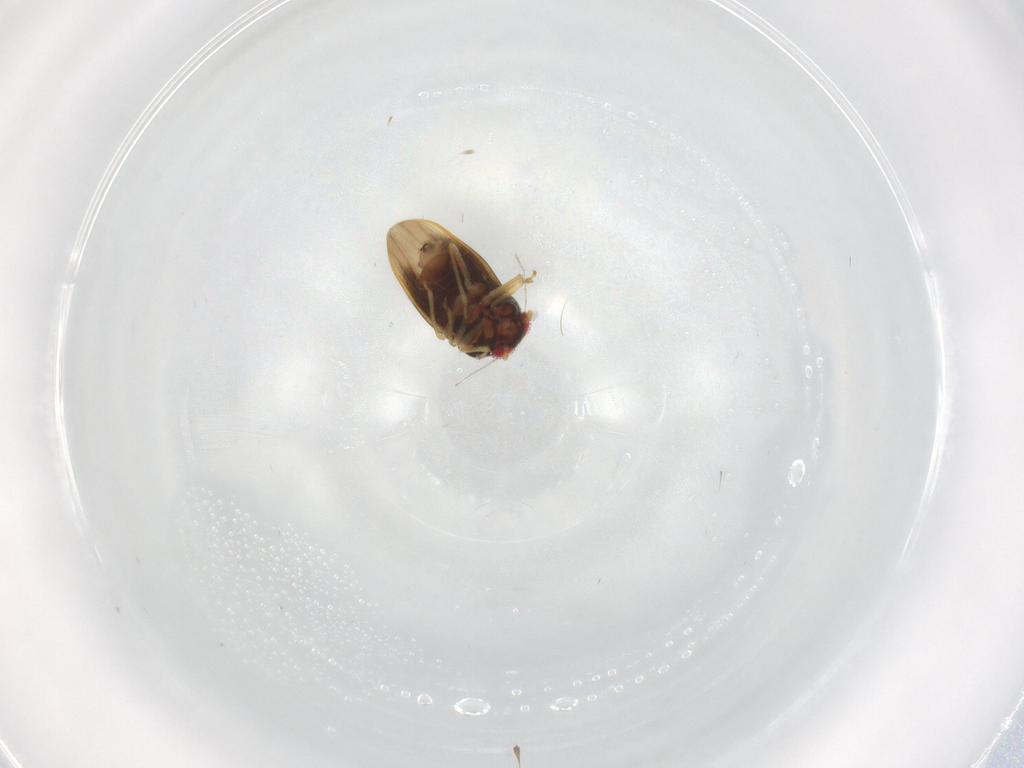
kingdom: Animalia
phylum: Arthropoda
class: Insecta
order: Hemiptera
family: Schizopteridae
